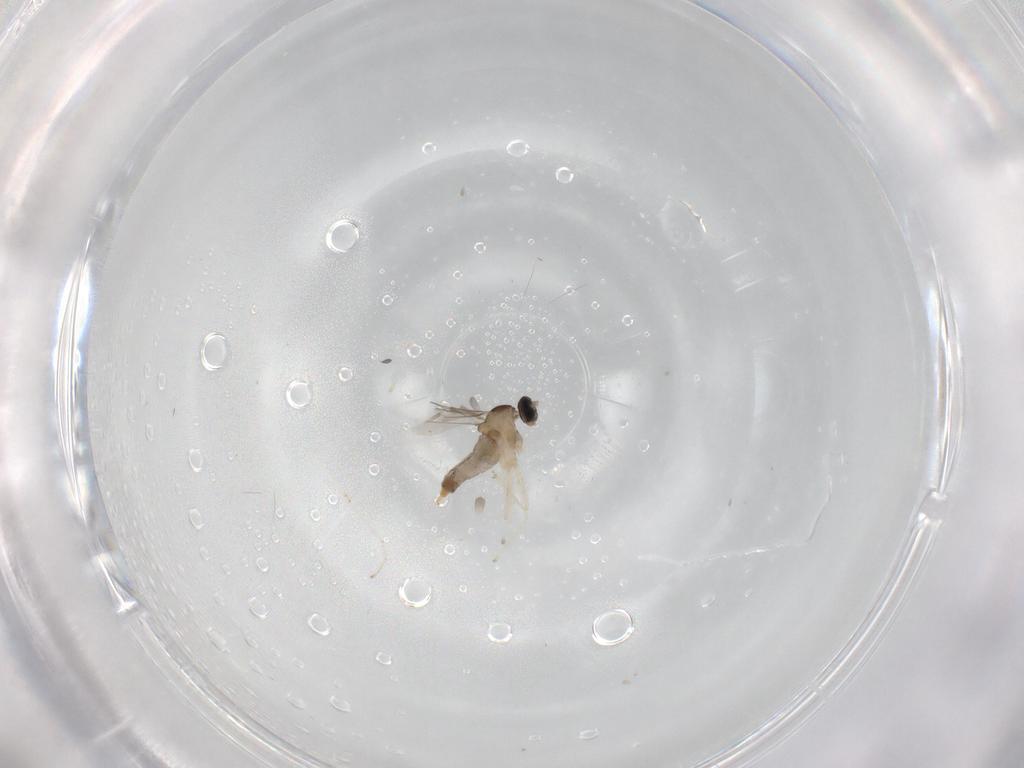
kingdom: Animalia
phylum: Arthropoda
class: Insecta
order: Diptera
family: Cecidomyiidae
